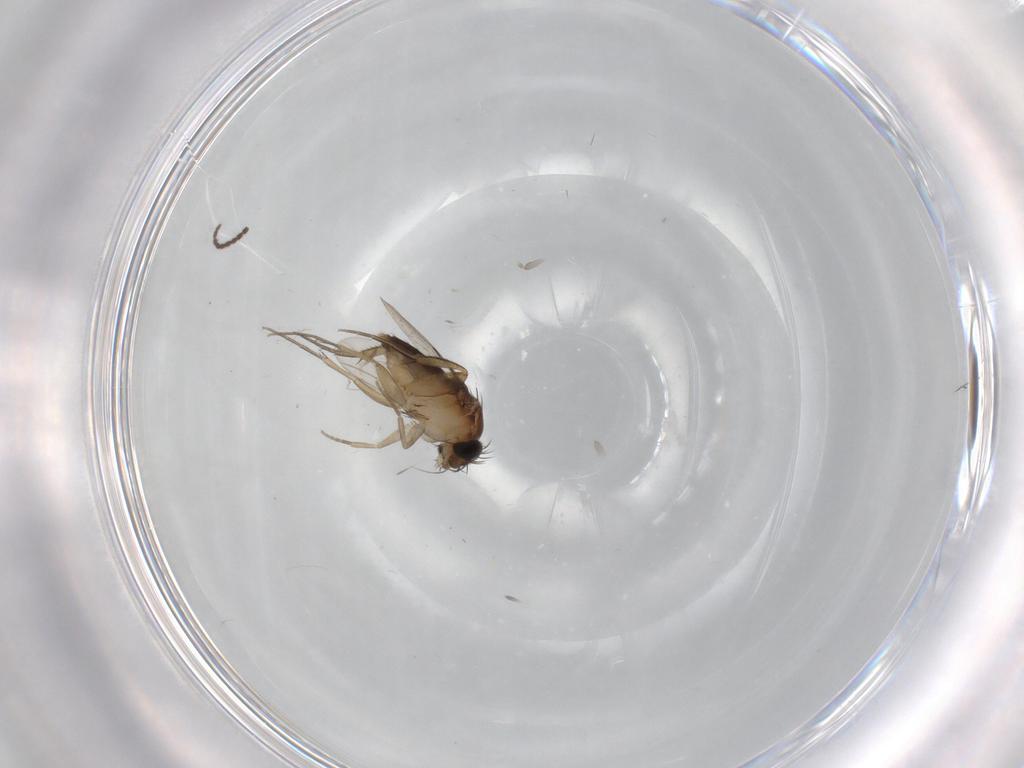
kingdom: Animalia
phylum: Arthropoda
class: Insecta
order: Diptera
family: Phoridae
